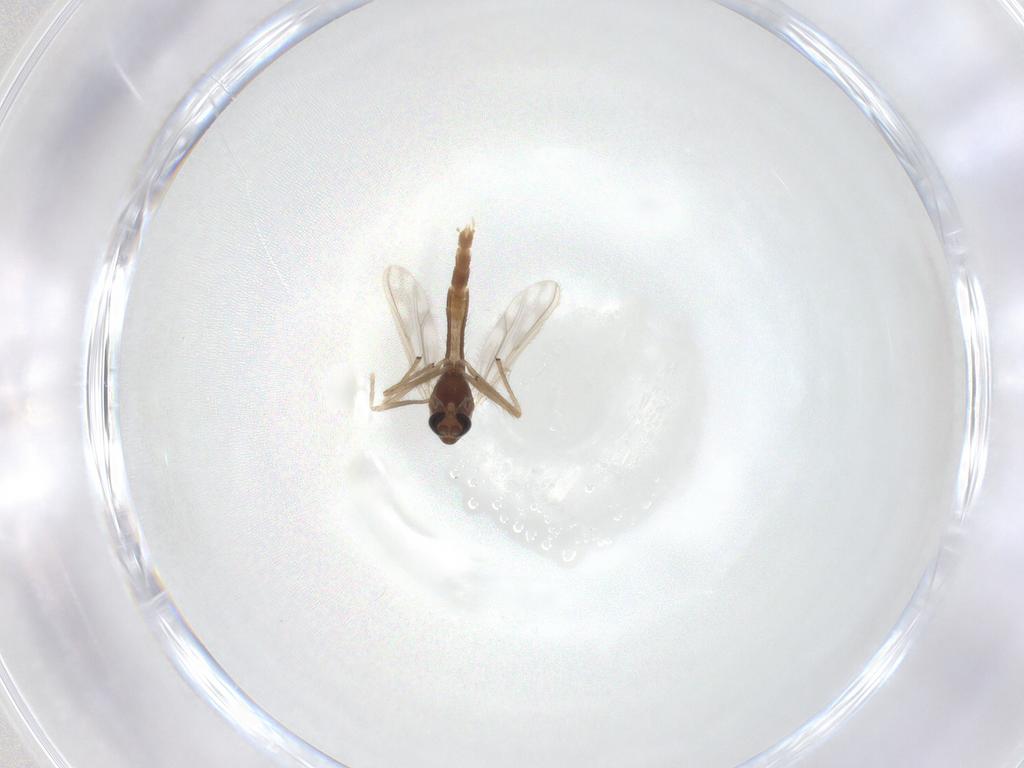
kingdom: Animalia
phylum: Arthropoda
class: Insecta
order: Diptera
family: Chironomidae
